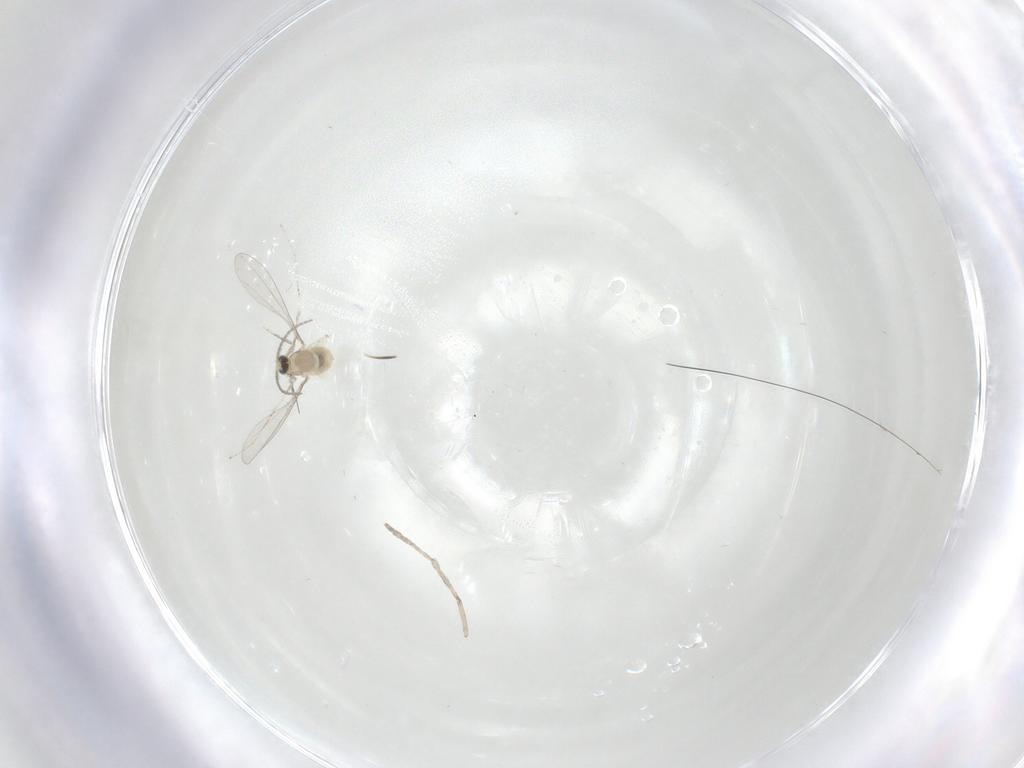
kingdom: Animalia
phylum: Arthropoda
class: Insecta
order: Diptera
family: Psychodidae
